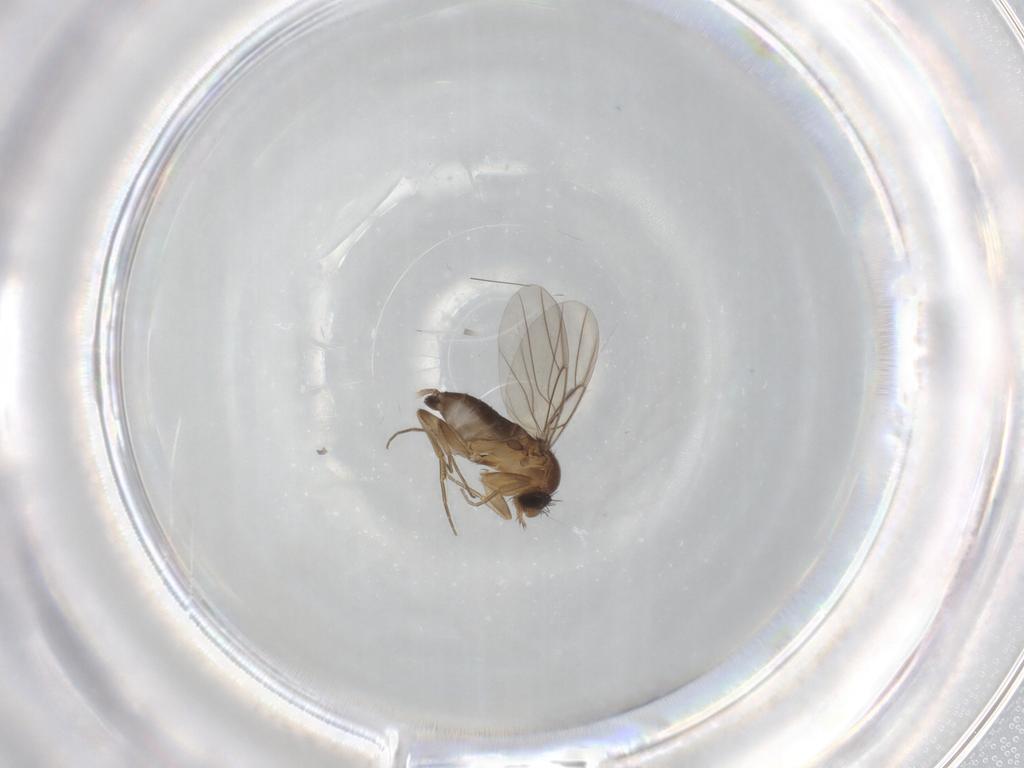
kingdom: Animalia
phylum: Arthropoda
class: Insecta
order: Diptera
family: Phoridae
